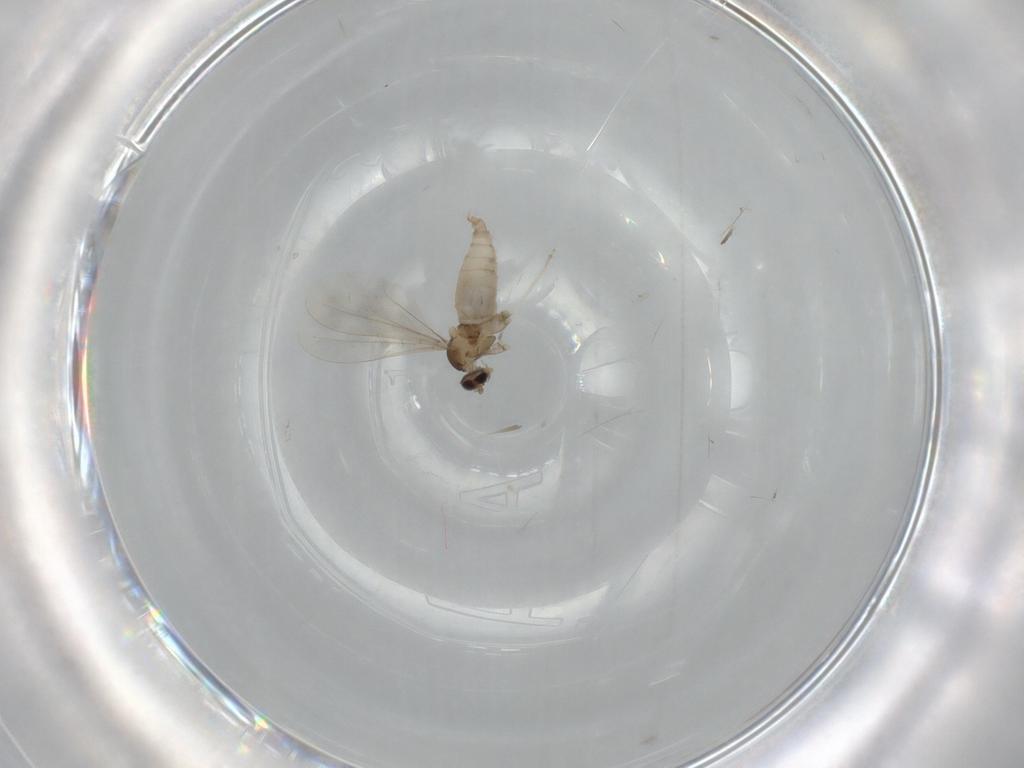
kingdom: Animalia
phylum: Arthropoda
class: Insecta
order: Diptera
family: Cecidomyiidae
